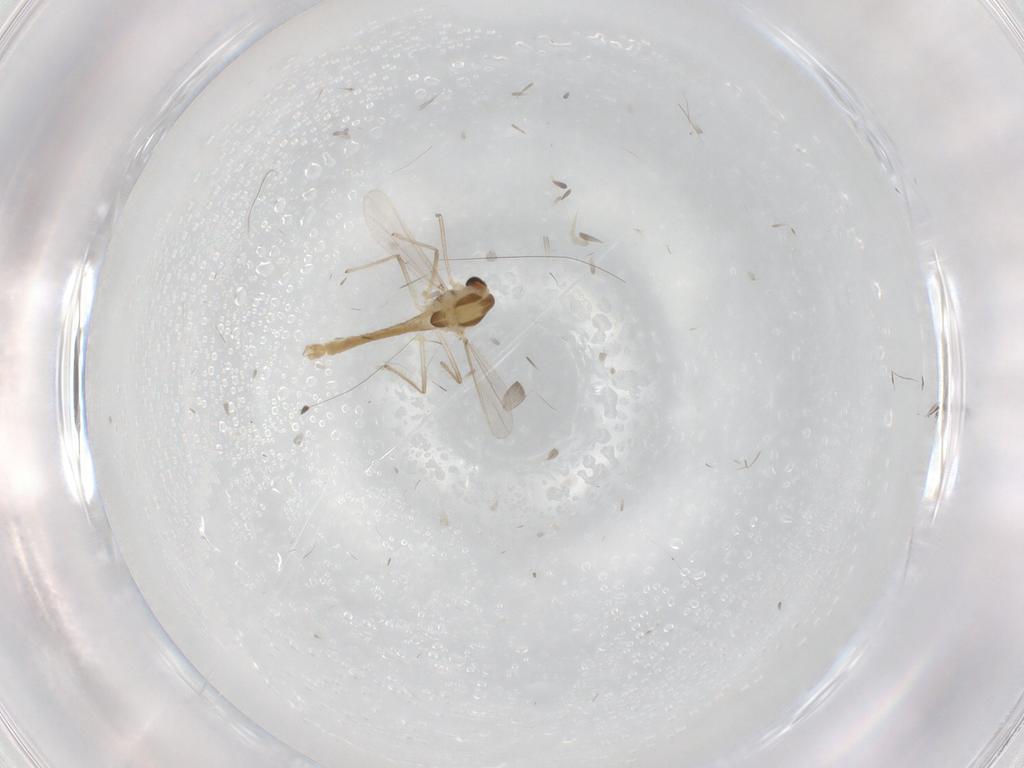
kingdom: Animalia
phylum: Arthropoda
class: Insecta
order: Diptera
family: Chironomidae
